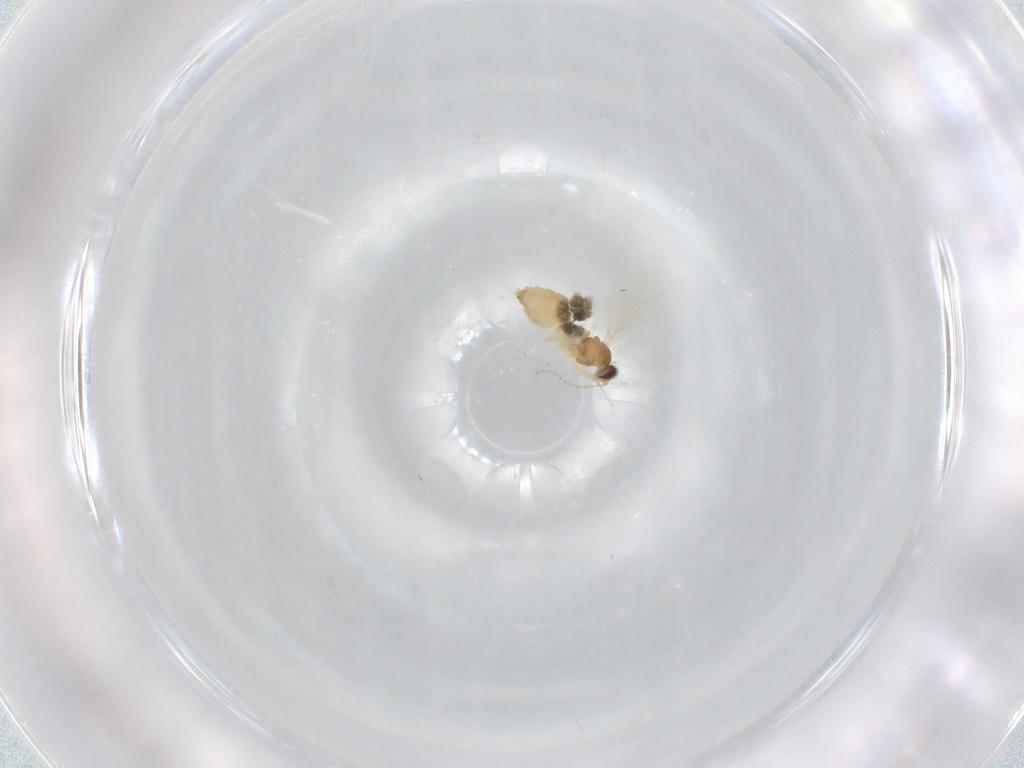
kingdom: Animalia
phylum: Arthropoda
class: Insecta
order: Diptera
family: Cecidomyiidae
